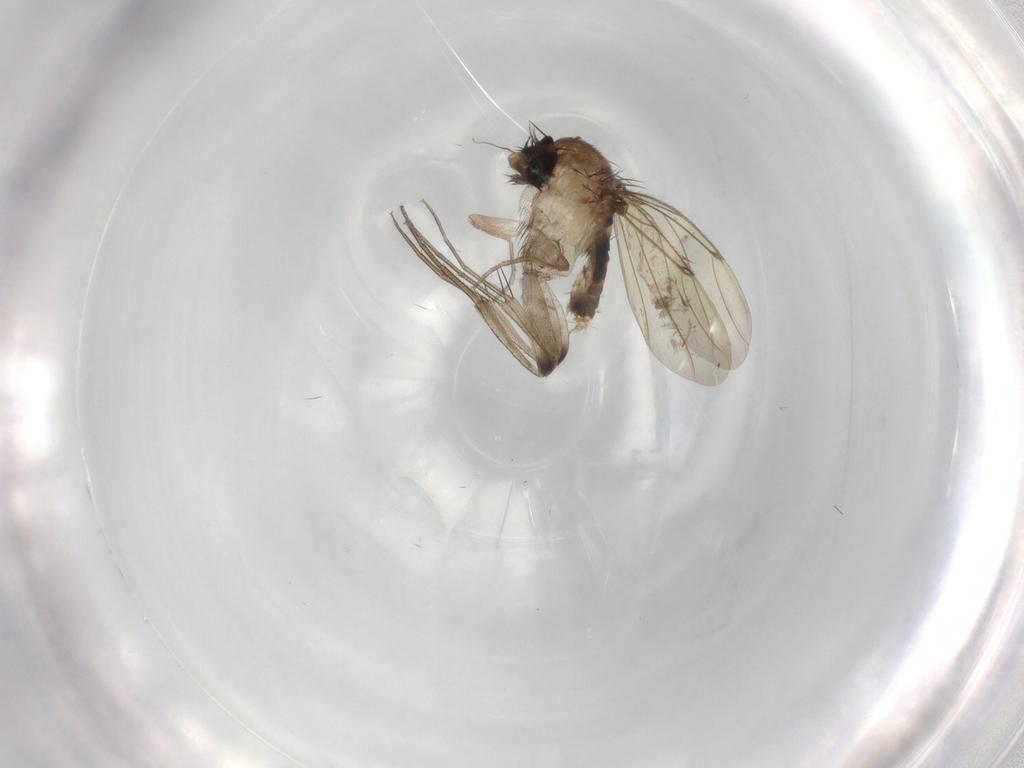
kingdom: Animalia
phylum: Arthropoda
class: Insecta
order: Diptera
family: Phoridae
